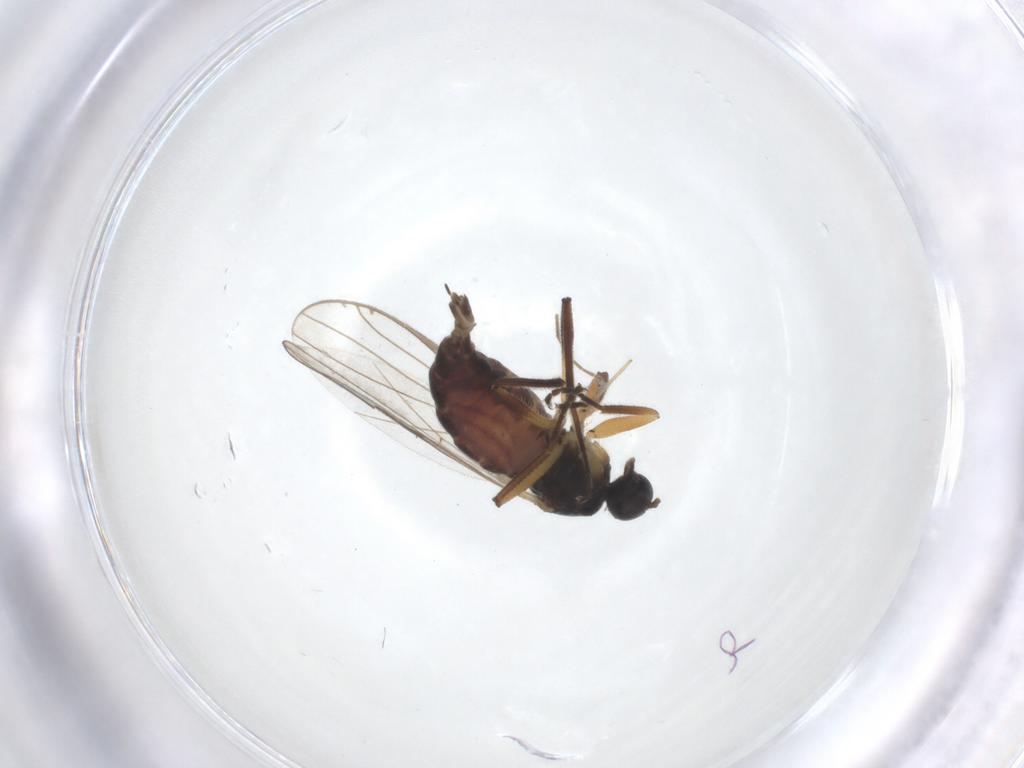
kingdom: Animalia
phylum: Arthropoda
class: Insecta
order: Diptera
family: Hybotidae
